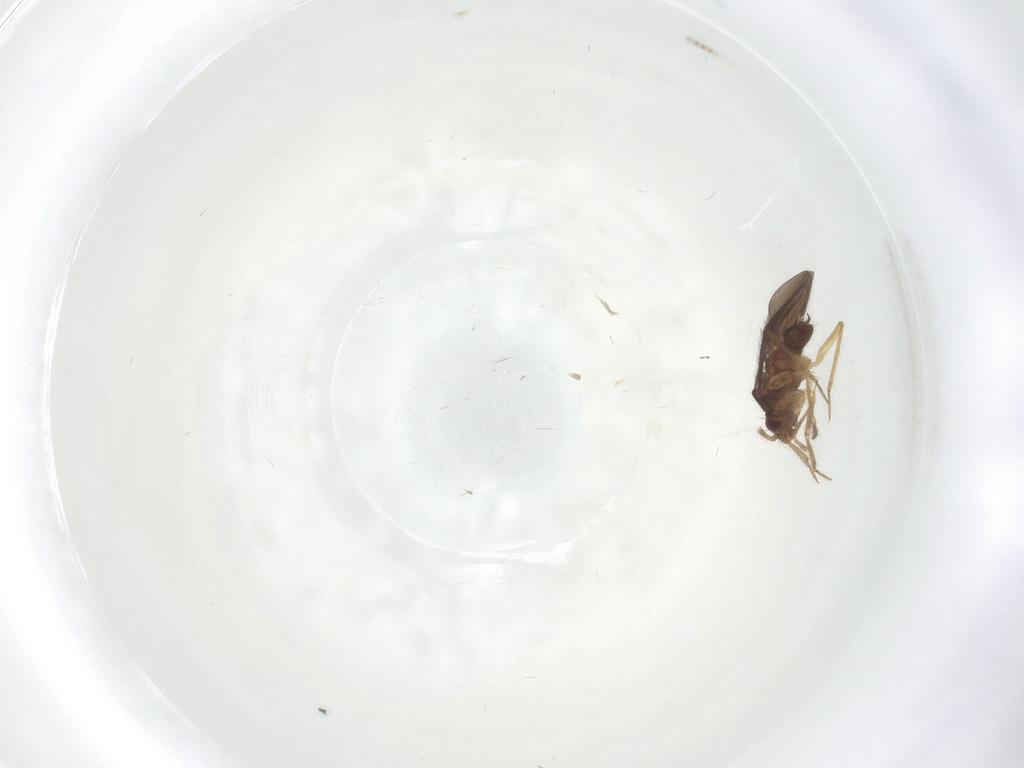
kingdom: Animalia
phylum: Arthropoda
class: Insecta
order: Hemiptera
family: Ceratocombidae
